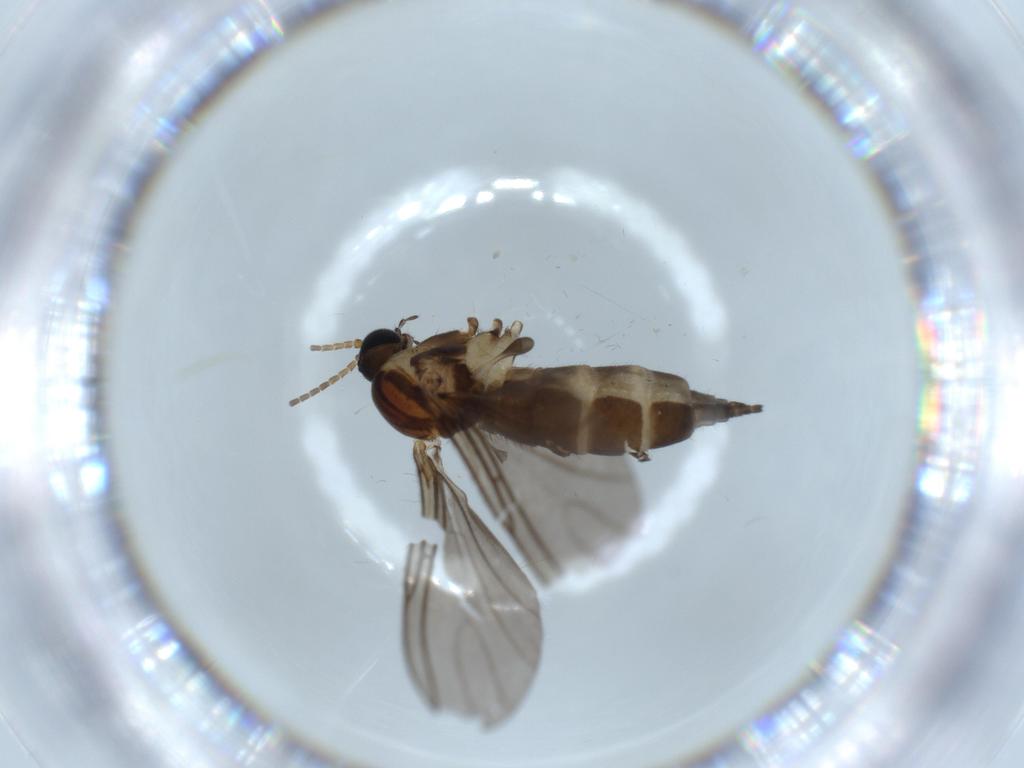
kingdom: Animalia
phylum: Arthropoda
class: Insecta
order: Diptera
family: Sciaridae
